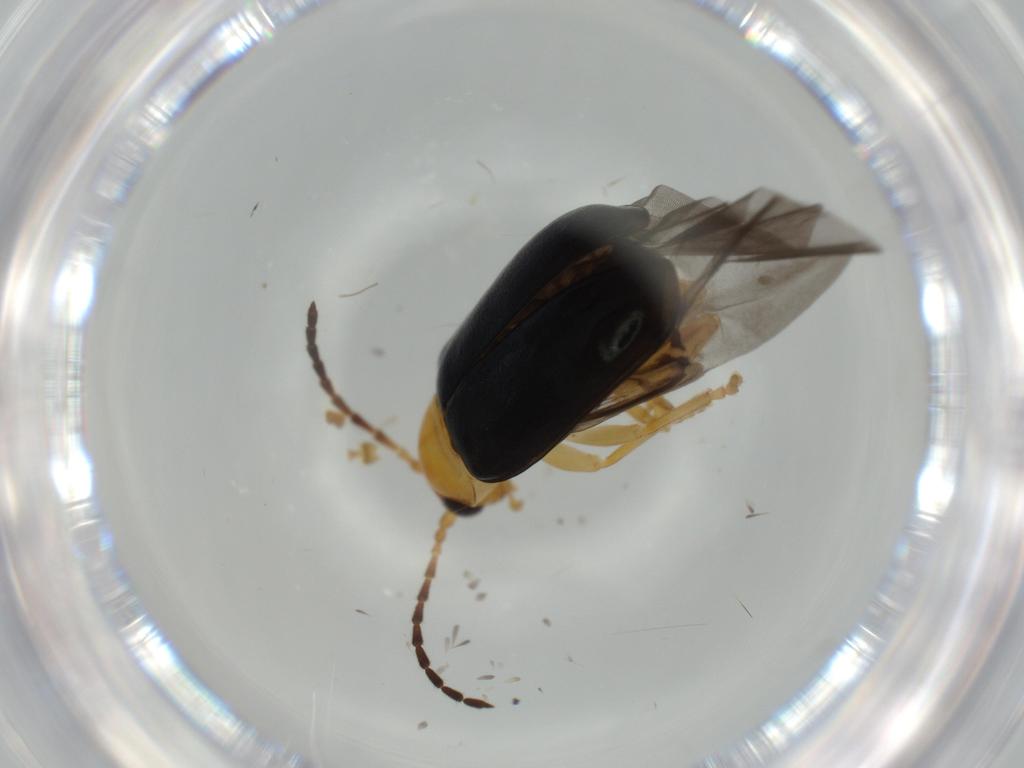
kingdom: Animalia
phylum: Arthropoda
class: Insecta
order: Coleoptera
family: Chrysomelidae
